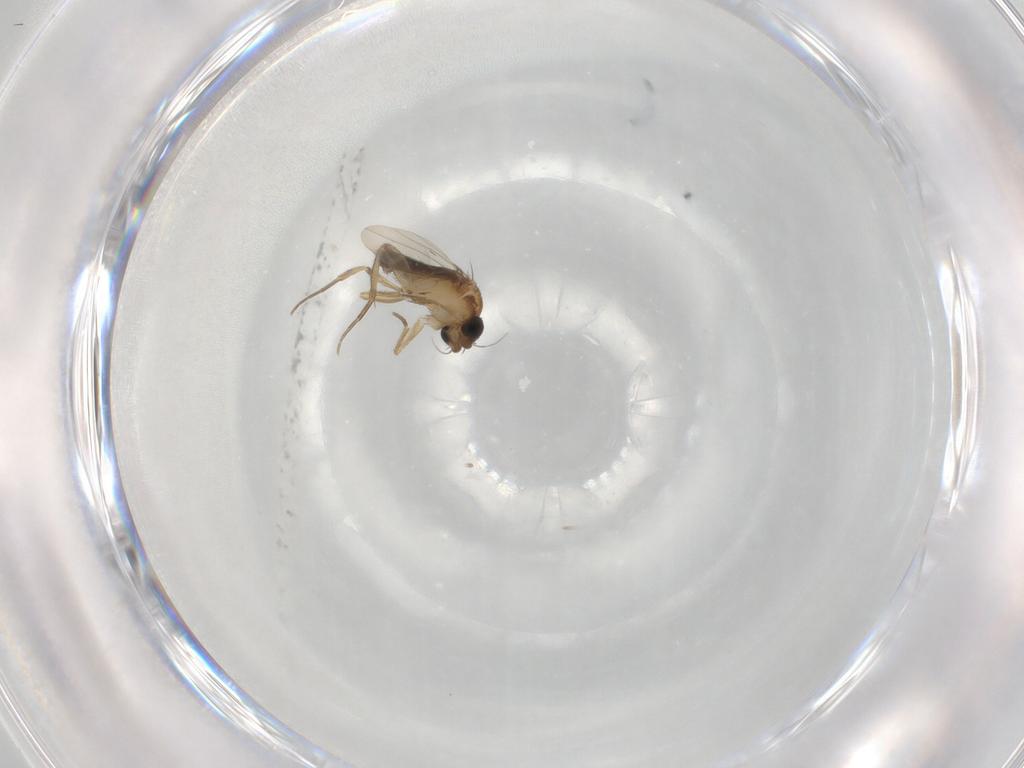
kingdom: Animalia
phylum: Arthropoda
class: Insecta
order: Diptera
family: Phoridae
